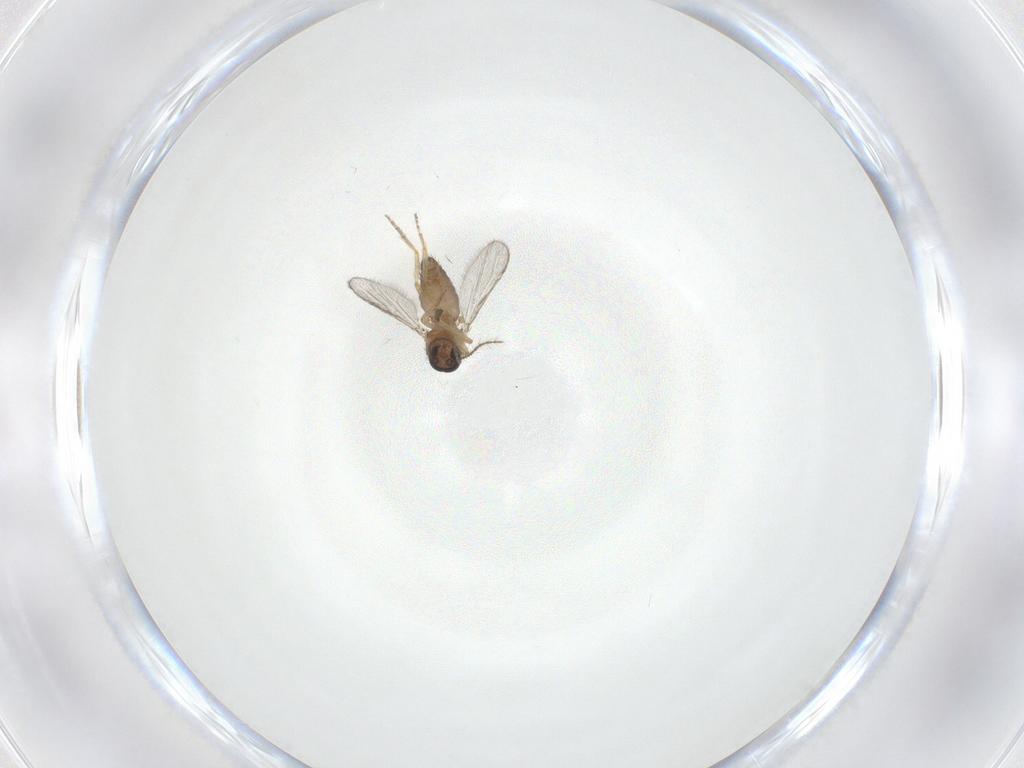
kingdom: Animalia
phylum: Arthropoda
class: Insecta
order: Diptera
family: Ceratopogonidae
